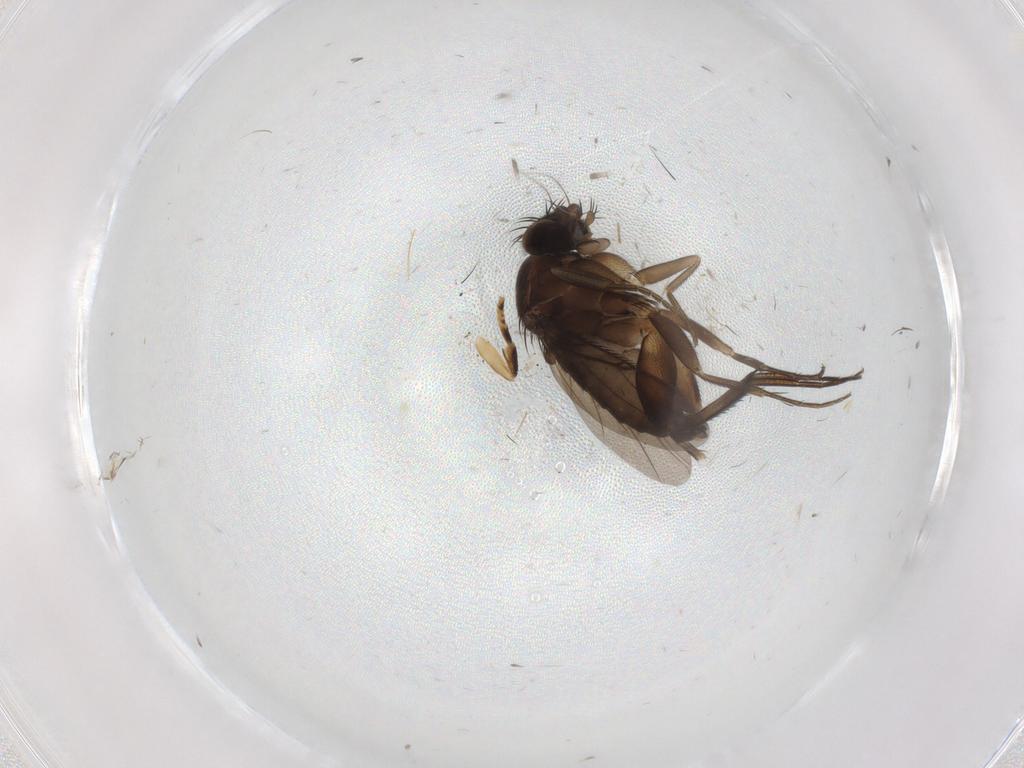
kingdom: Animalia
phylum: Arthropoda
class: Insecta
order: Diptera
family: Phoridae
